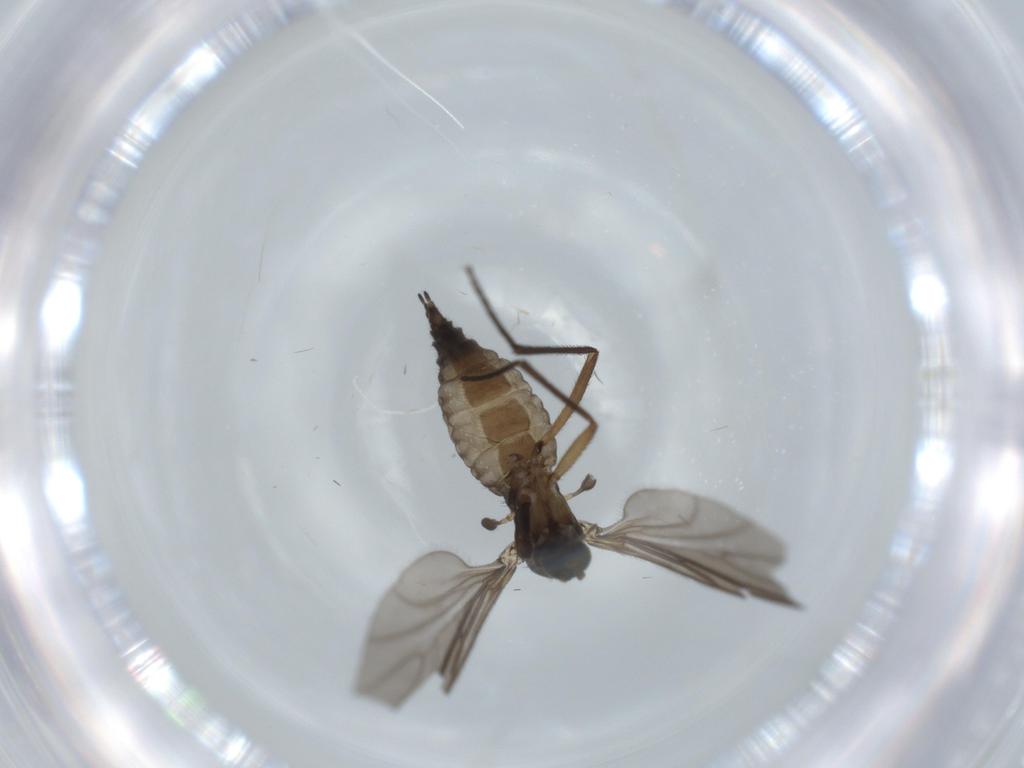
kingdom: Animalia
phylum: Arthropoda
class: Insecta
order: Diptera
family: Sciaridae
